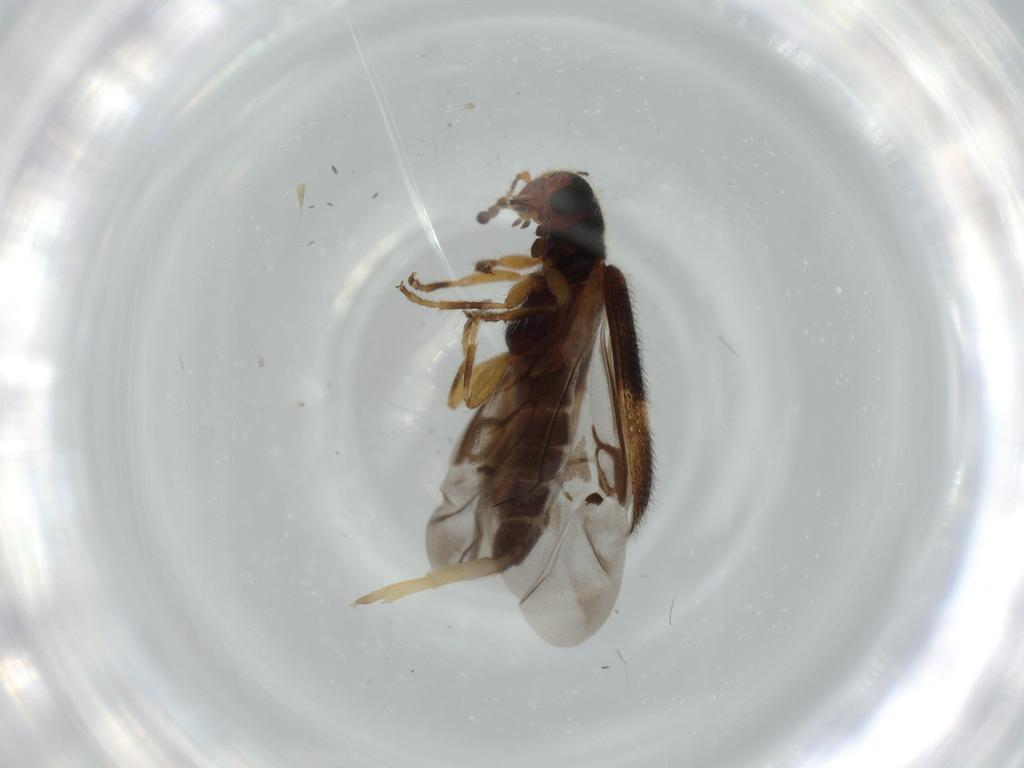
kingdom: Animalia
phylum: Arthropoda
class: Insecta
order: Coleoptera
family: Cleridae
